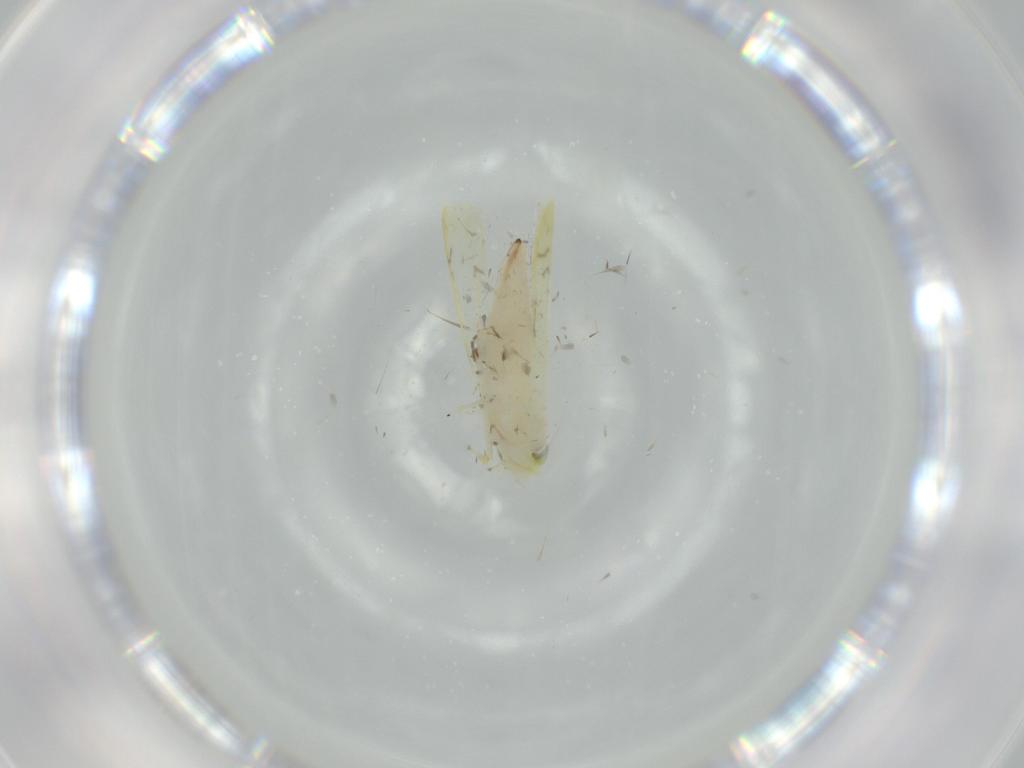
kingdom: Animalia
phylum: Arthropoda
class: Insecta
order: Hemiptera
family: Cicadellidae
